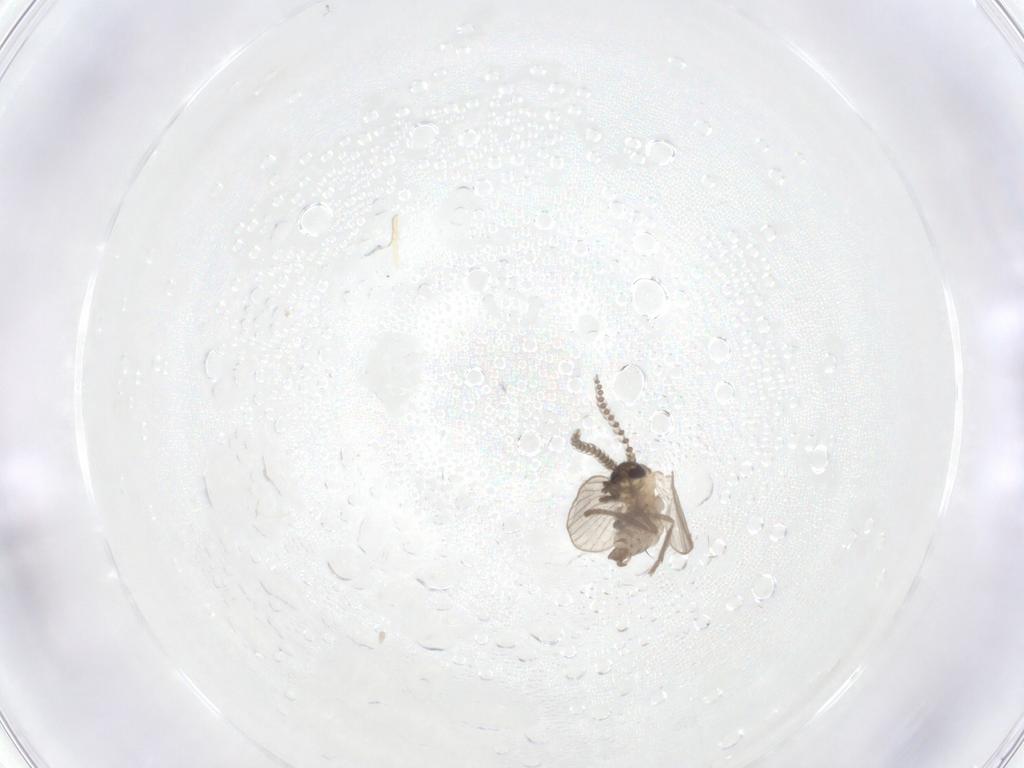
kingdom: Animalia
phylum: Arthropoda
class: Insecta
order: Diptera
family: Psychodidae
